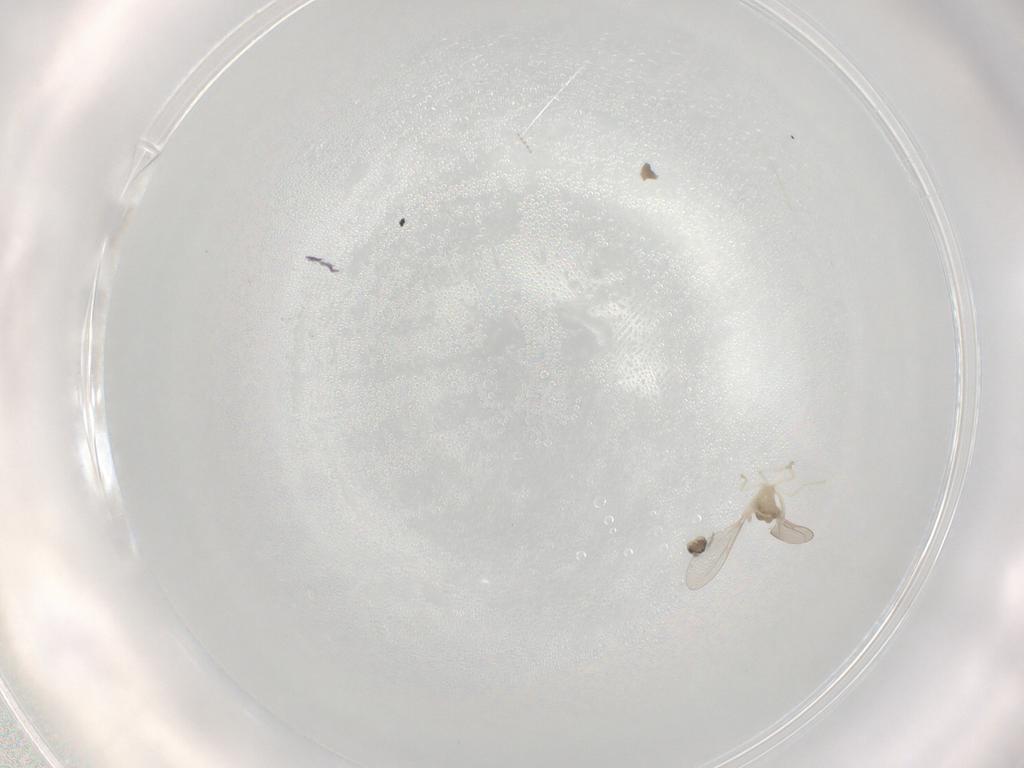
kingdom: Animalia
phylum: Arthropoda
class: Insecta
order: Diptera
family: Cecidomyiidae
